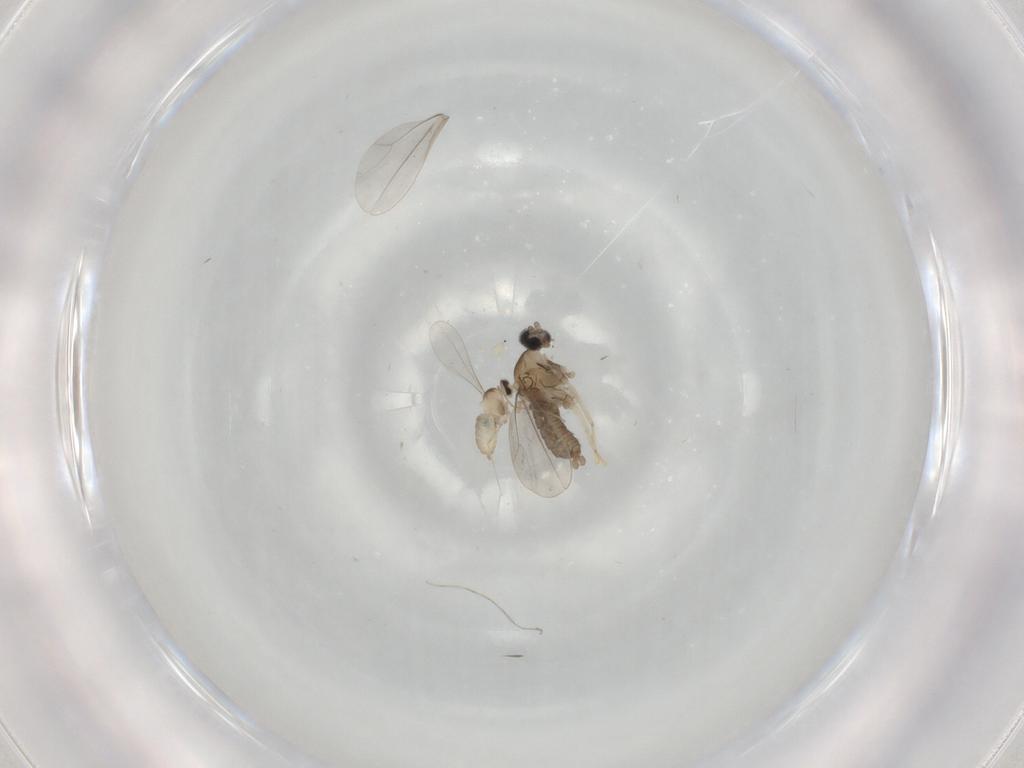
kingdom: Animalia
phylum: Arthropoda
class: Insecta
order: Diptera
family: Cecidomyiidae
